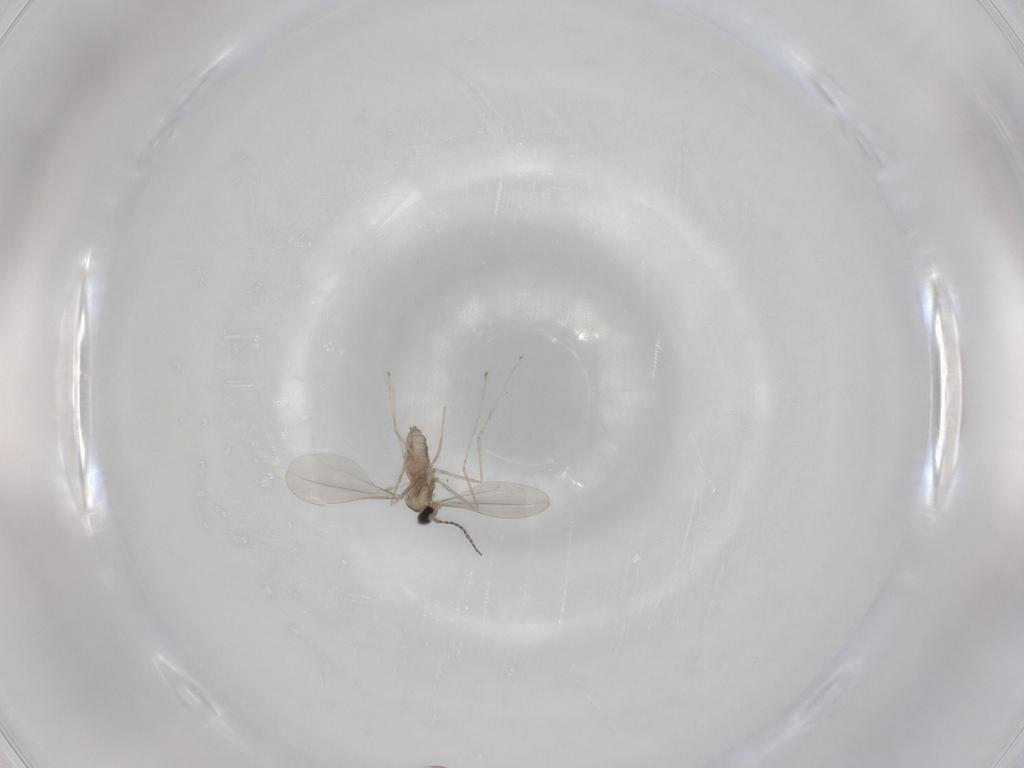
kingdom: Animalia
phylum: Arthropoda
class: Insecta
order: Diptera
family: Cecidomyiidae
